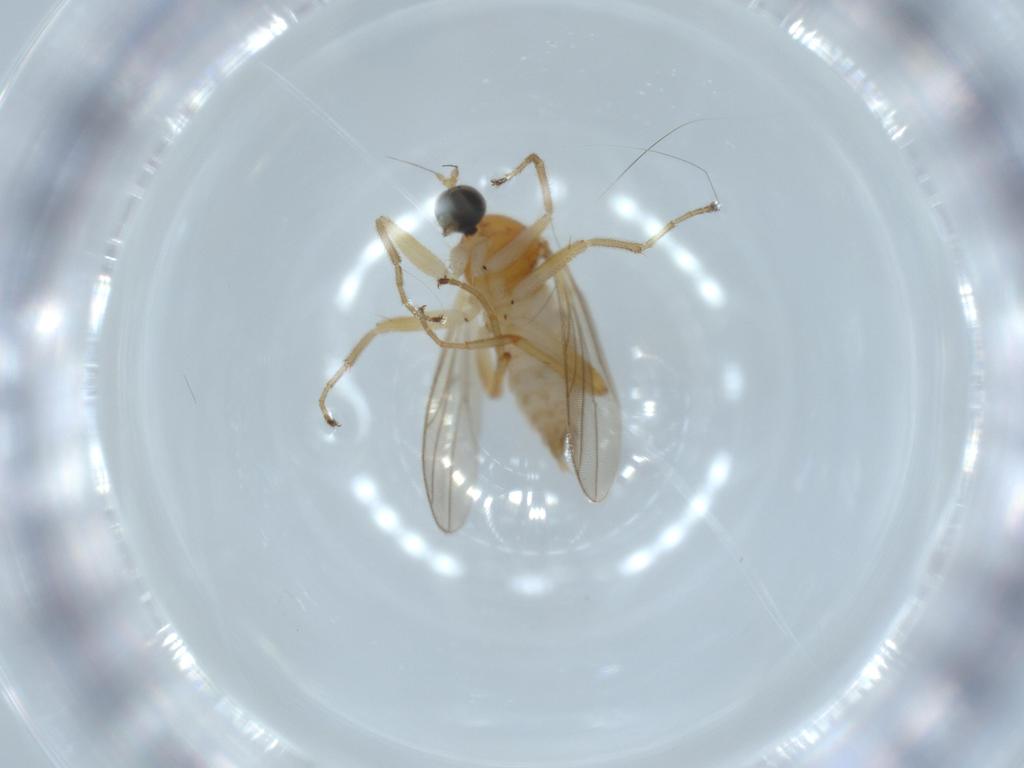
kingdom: Animalia
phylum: Arthropoda
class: Insecta
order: Diptera
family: Hybotidae
